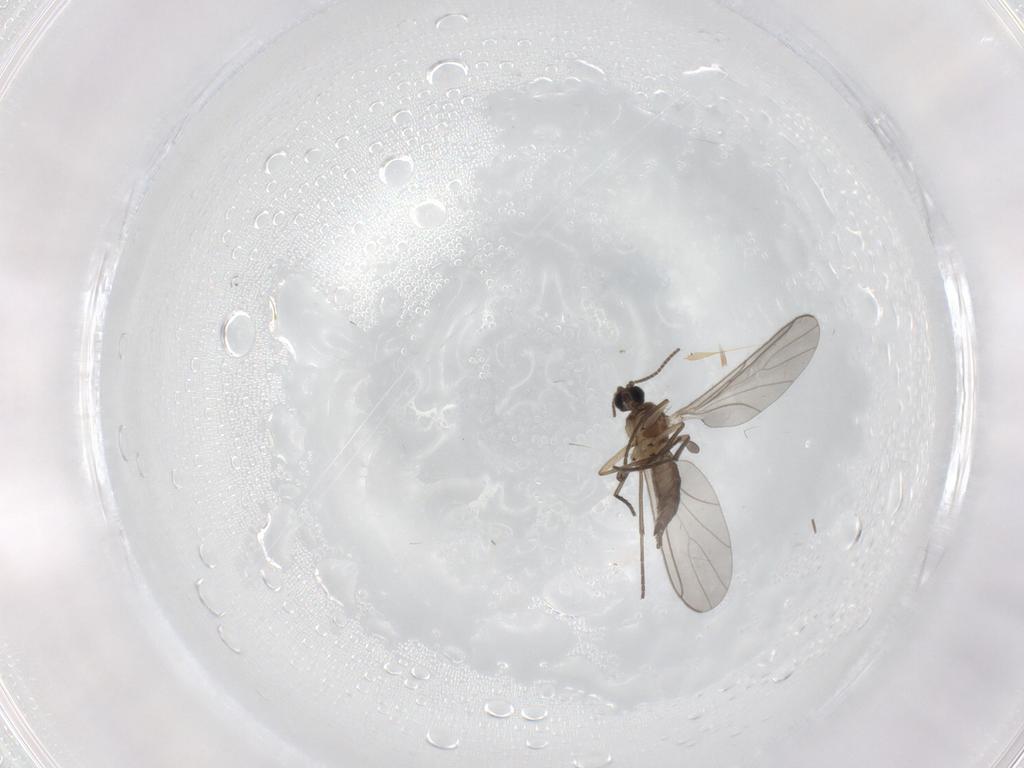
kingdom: Animalia
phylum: Arthropoda
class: Insecta
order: Diptera
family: Sciaridae
